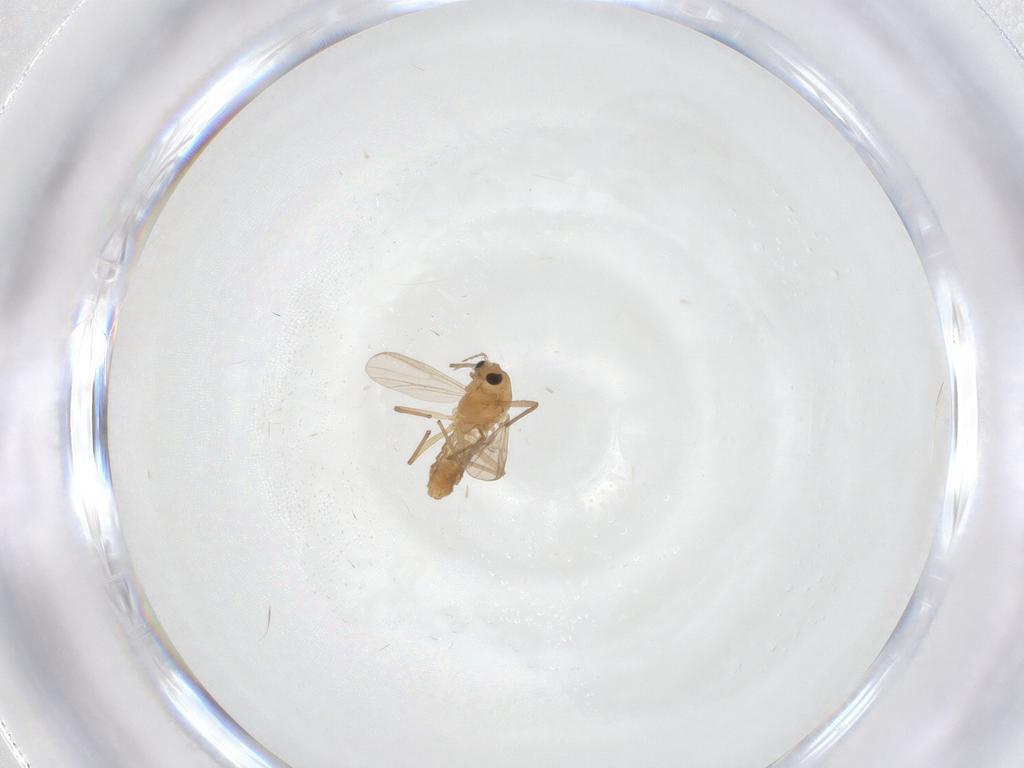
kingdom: Animalia
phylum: Arthropoda
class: Insecta
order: Diptera
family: Chironomidae
